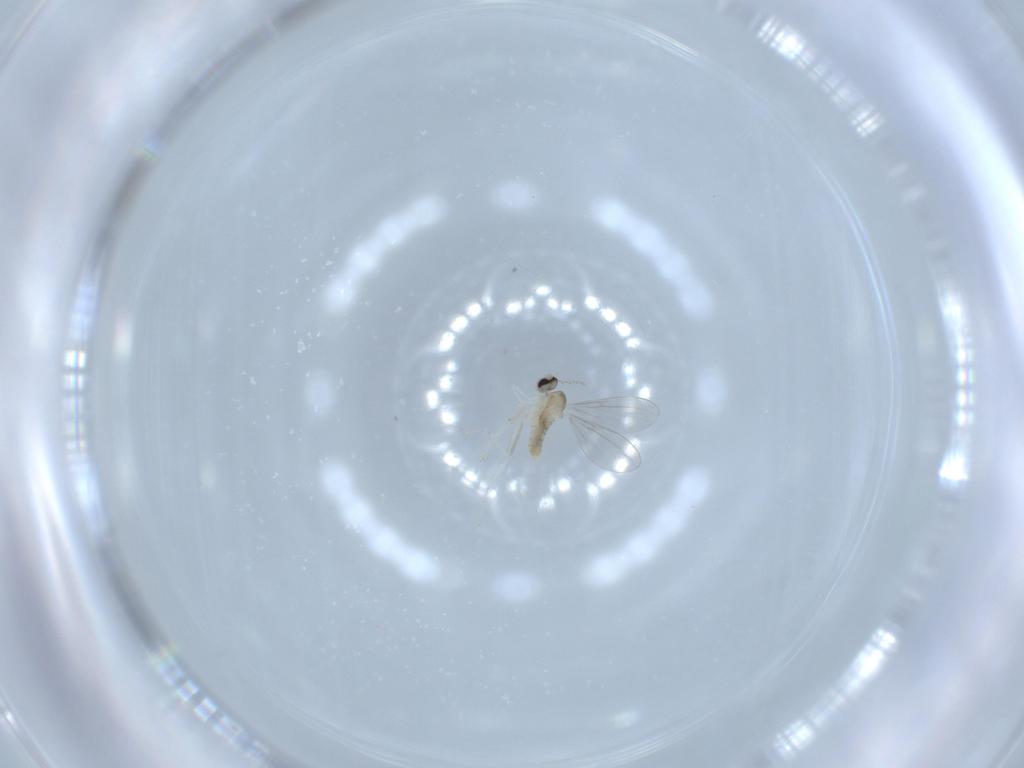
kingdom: Animalia
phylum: Arthropoda
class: Insecta
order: Diptera
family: Cecidomyiidae
